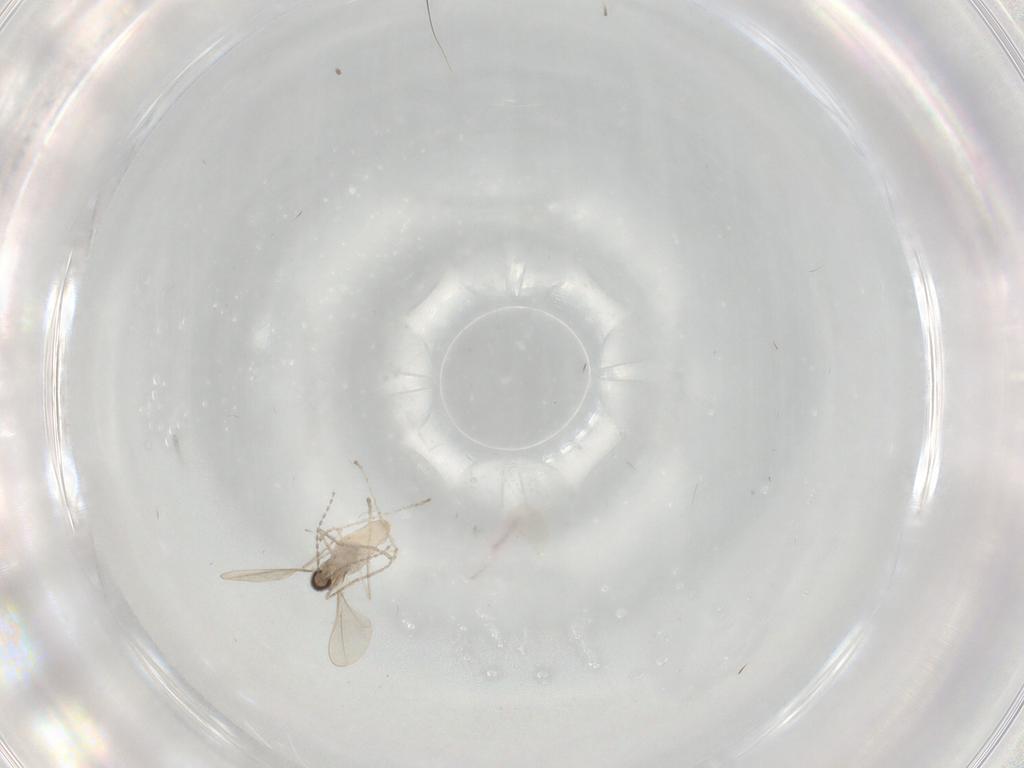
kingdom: Animalia
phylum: Arthropoda
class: Insecta
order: Diptera
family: Cecidomyiidae
